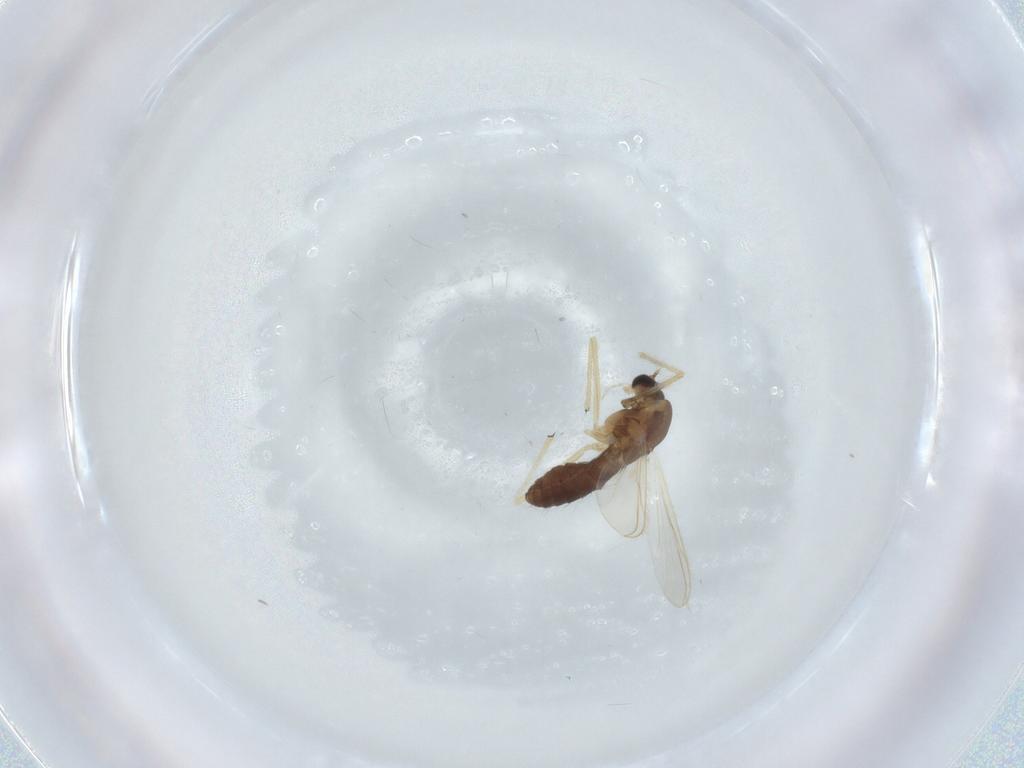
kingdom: Animalia
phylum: Arthropoda
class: Insecta
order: Diptera
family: Chironomidae
